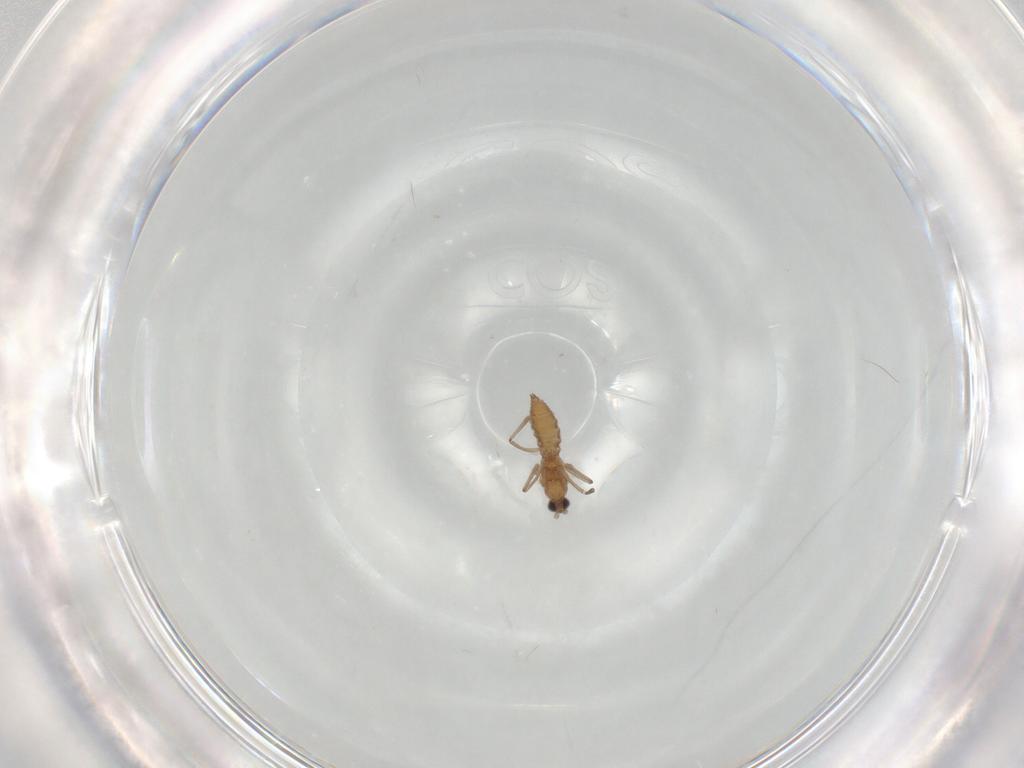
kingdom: Animalia
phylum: Arthropoda
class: Insecta
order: Diptera
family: Cecidomyiidae
